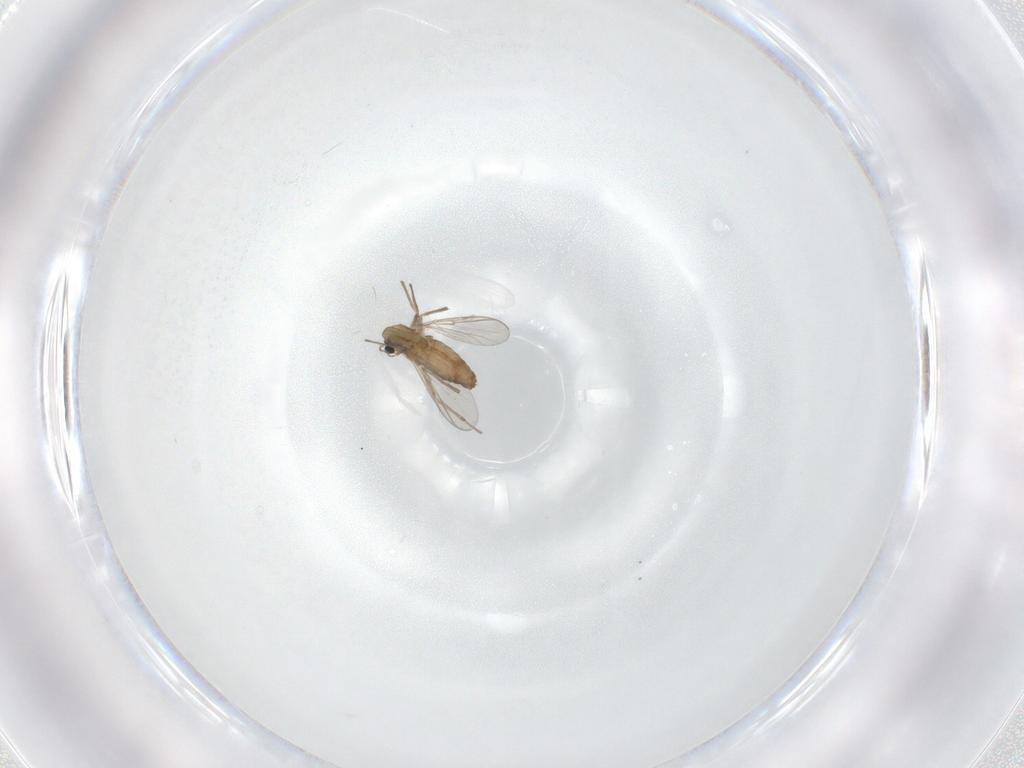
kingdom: Animalia
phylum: Arthropoda
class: Insecta
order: Diptera
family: Chironomidae
